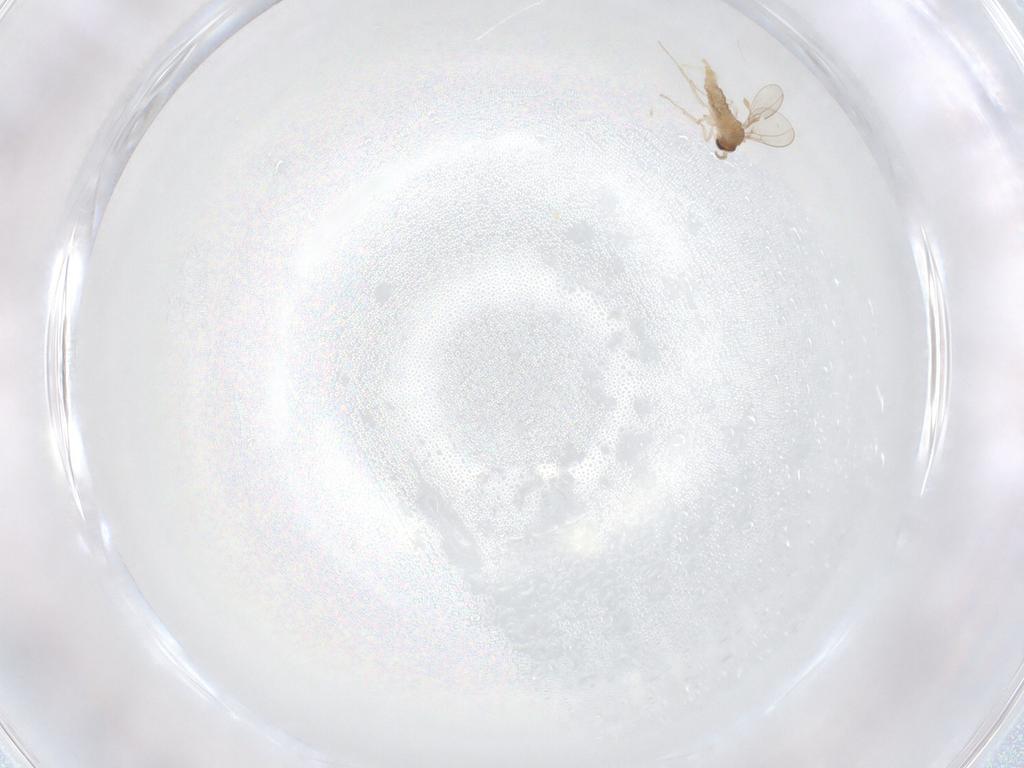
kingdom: Animalia
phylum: Arthropoda
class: Insecta
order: Diptera
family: Cecidomyiidae
